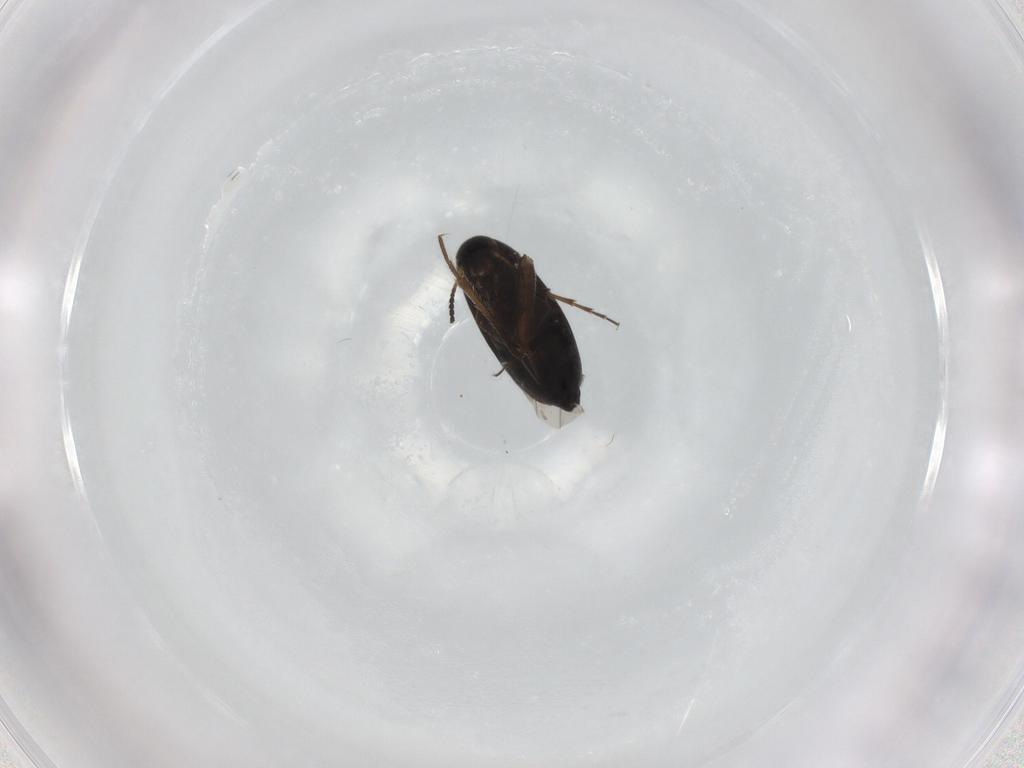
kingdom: Animalia
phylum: Arthropoda
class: Insecta
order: Coleoptera
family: Scraptiidae
